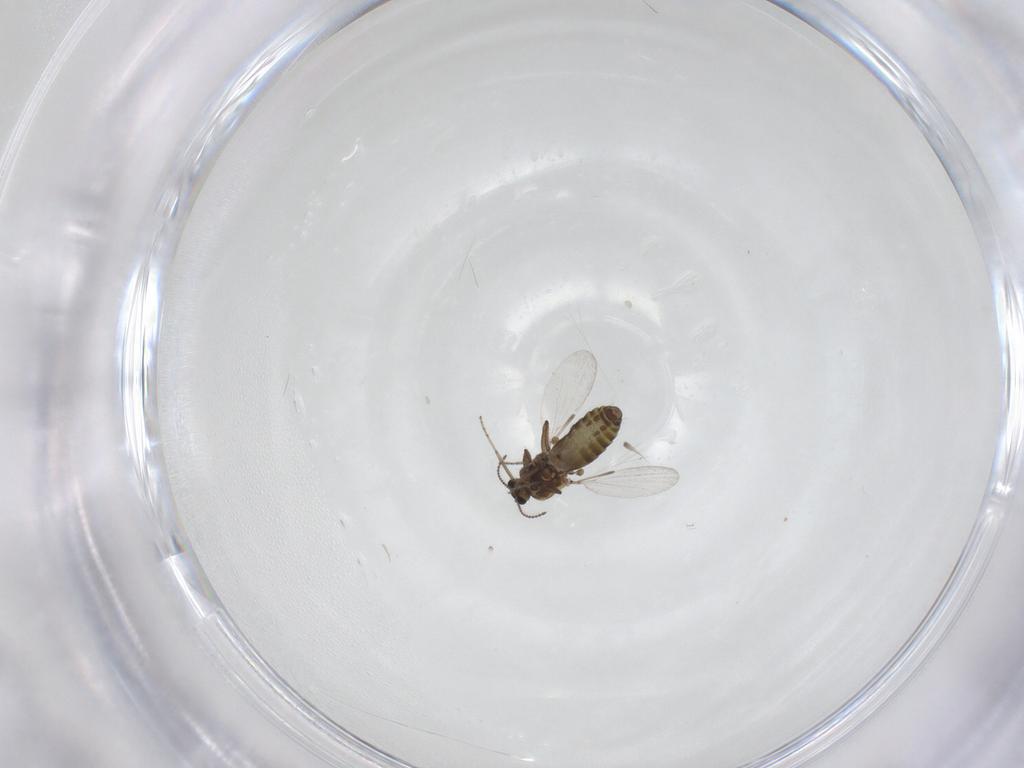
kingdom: Animalia
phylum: Arthropoda
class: Insecta
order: Diptera
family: Ceratopogonidae
